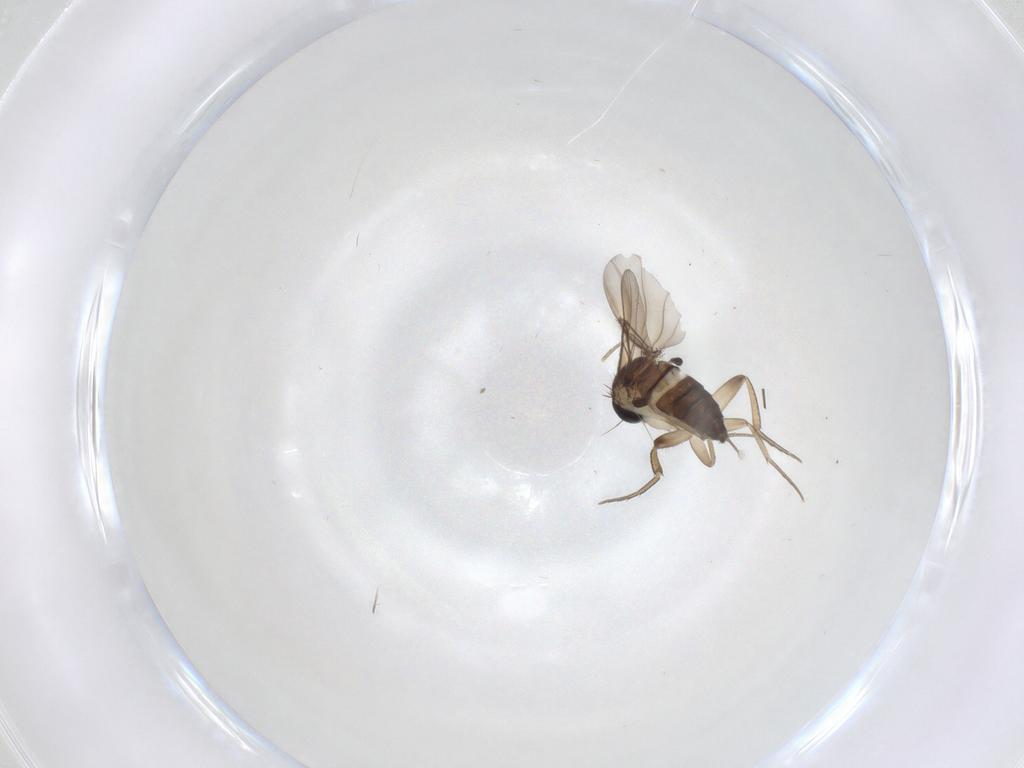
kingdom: Animalia
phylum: Arthropoda
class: Insecta
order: Diptera
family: Phoridae
